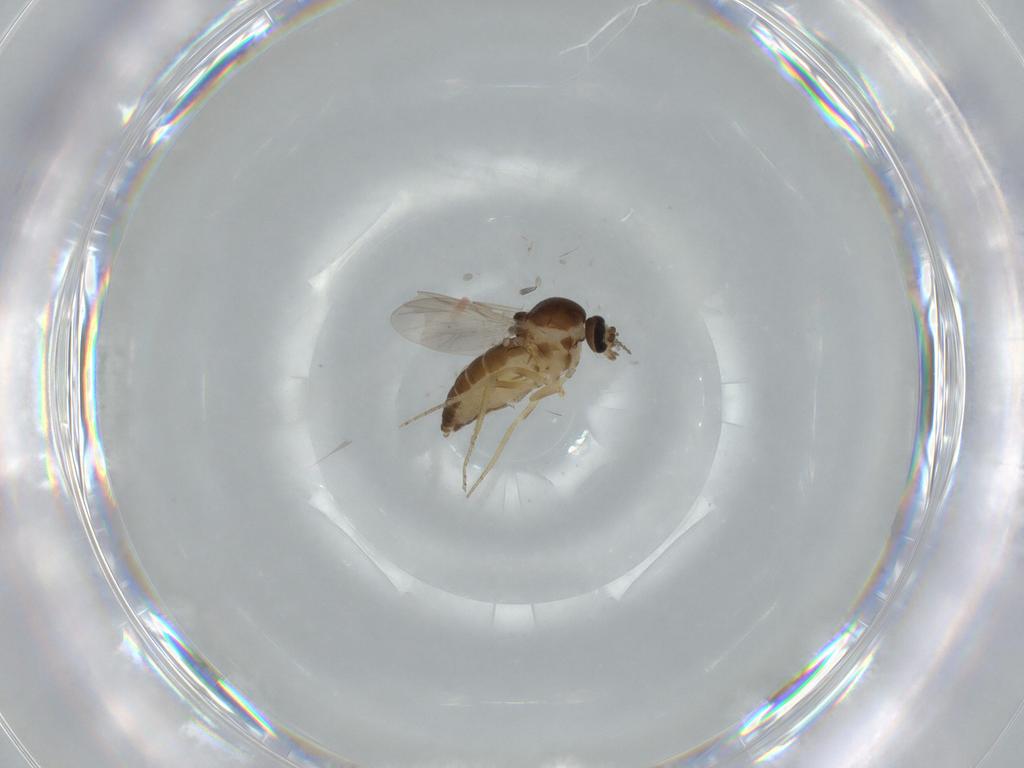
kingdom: Animalia
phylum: Arthropoda
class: Insecta
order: Diptera
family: Ceratopogonidae
